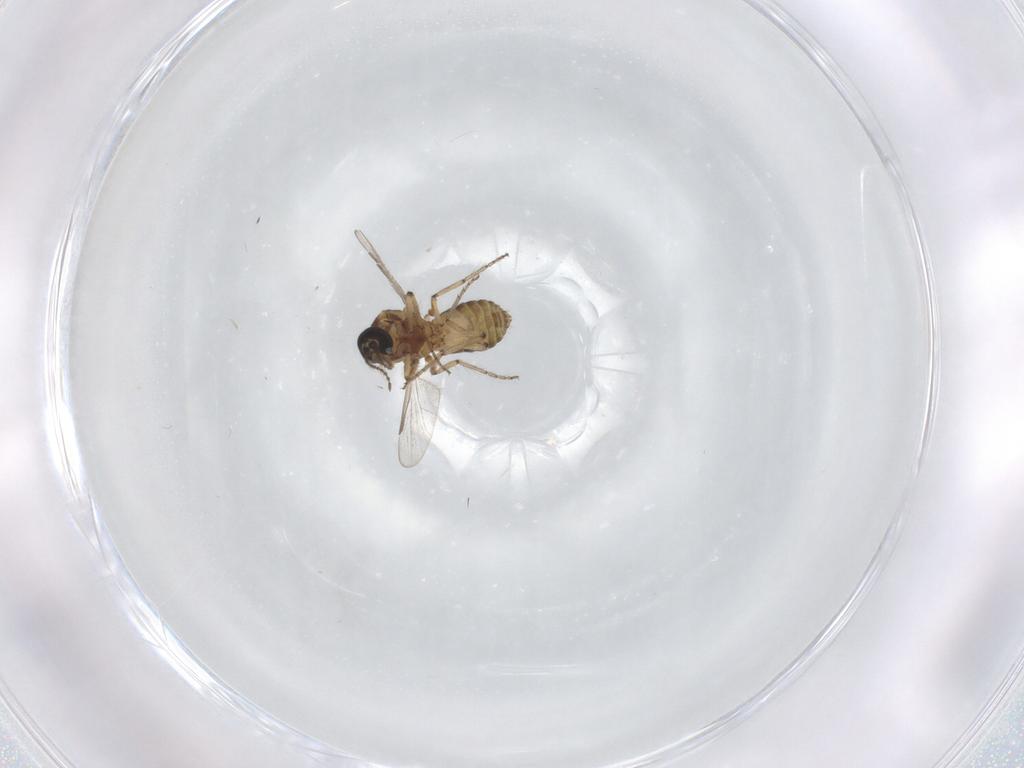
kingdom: Animalia
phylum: Arthropoda
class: Insecta
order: Diptera
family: Ceratopogonidae
